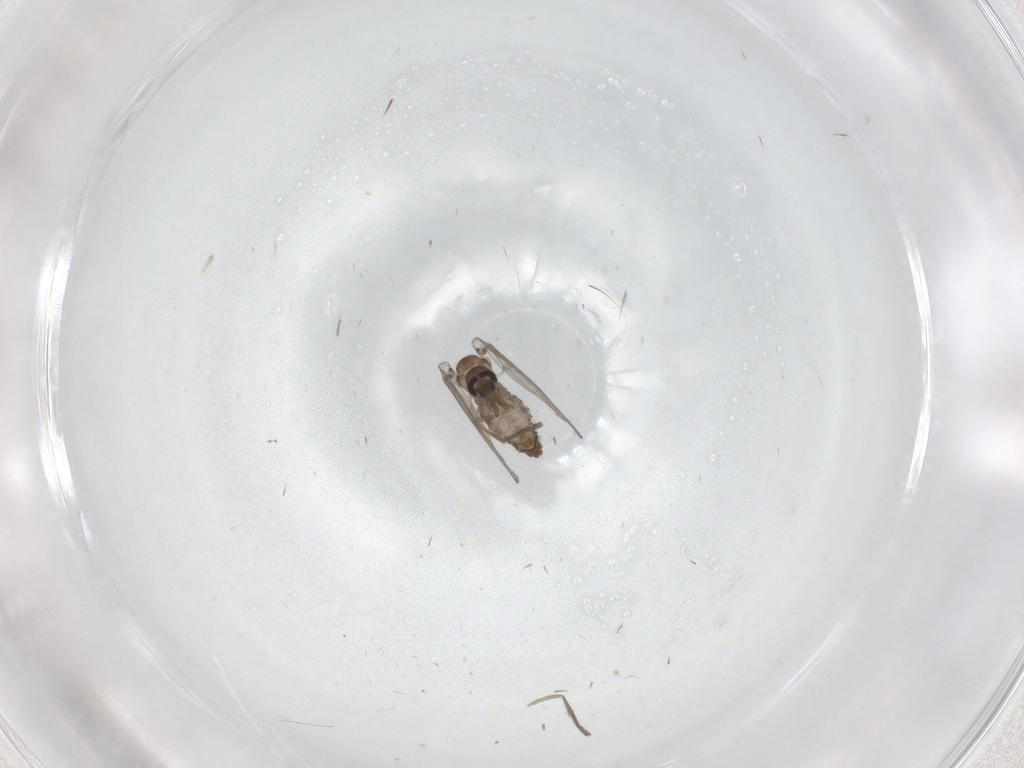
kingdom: Animalia
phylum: Arthropoda
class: Insecta
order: Diptera
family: Psychodidae
